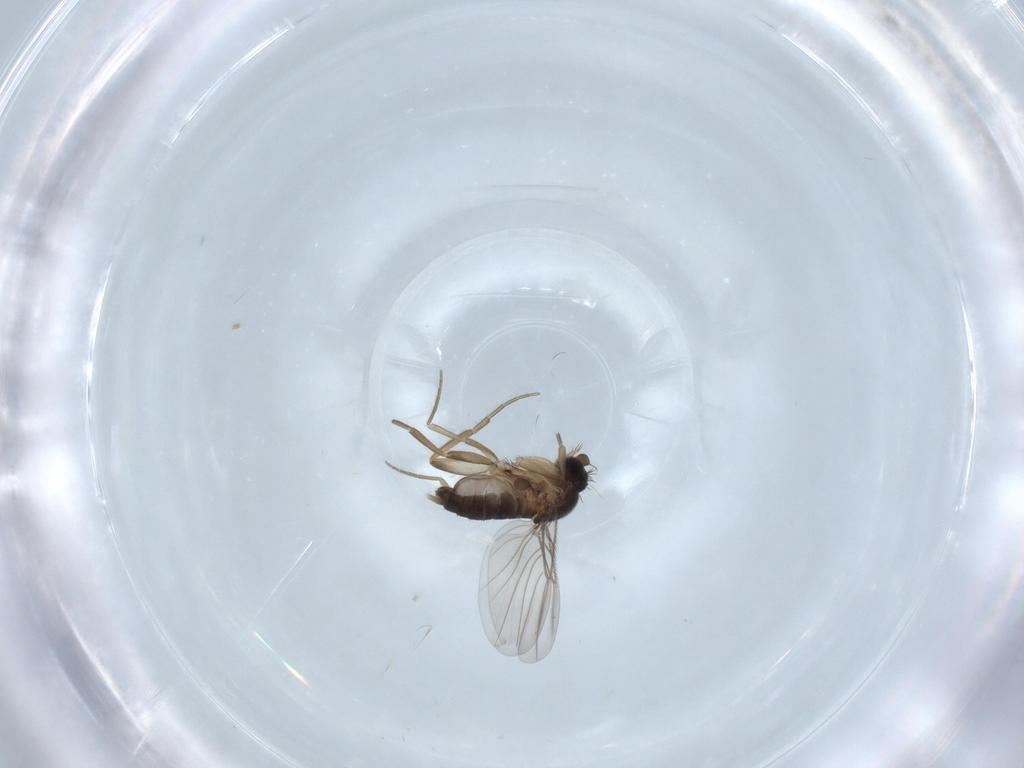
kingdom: Animalia
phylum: Arthropoda
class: Insecta
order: Diptera
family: Phoridae
